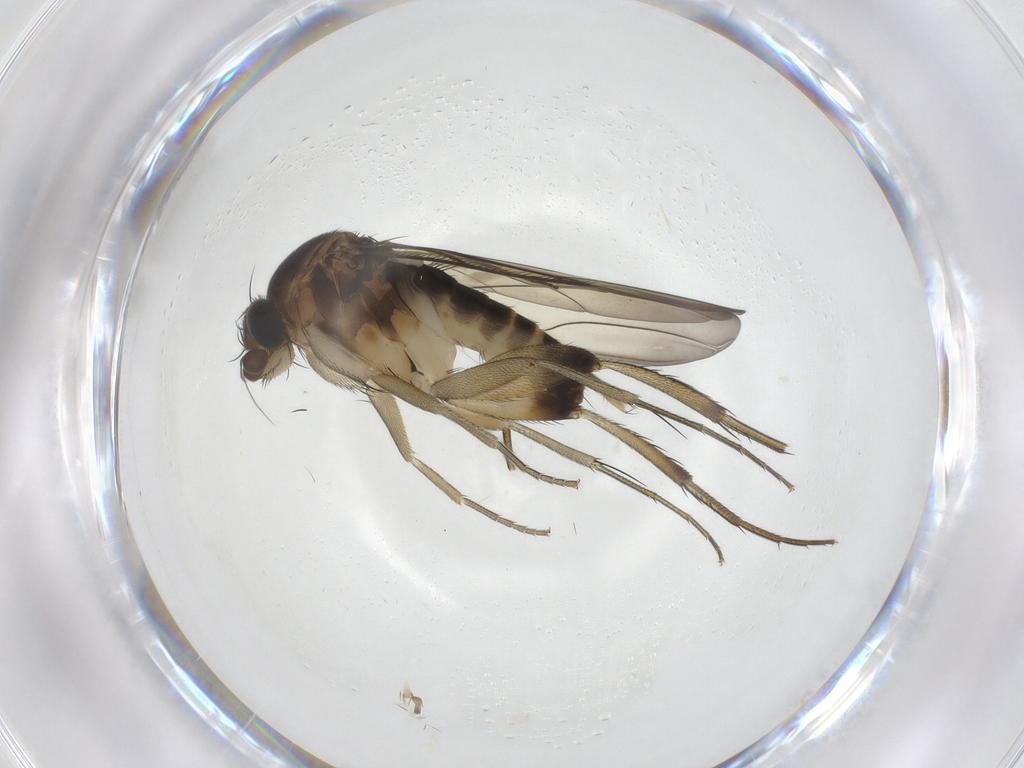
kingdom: Animalia
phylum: Arthropoda
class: Insecta
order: Diptera
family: Phoridae
